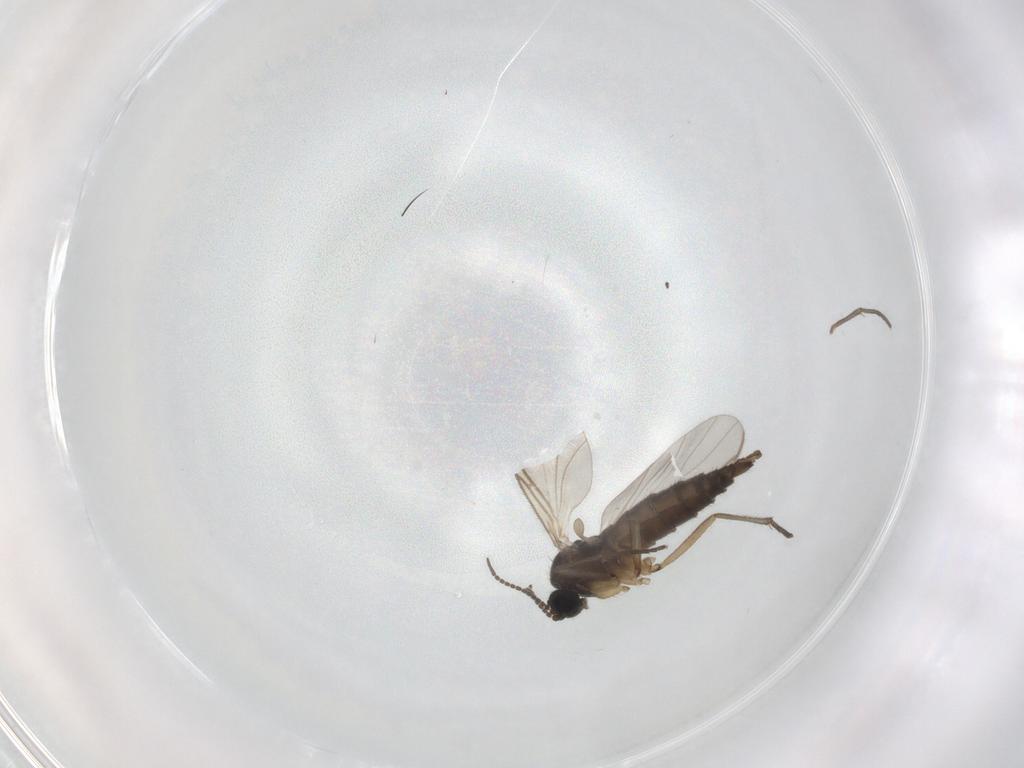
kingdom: Animalia
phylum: Arthropoda
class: Insecta
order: Diptera
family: Sciaridae
